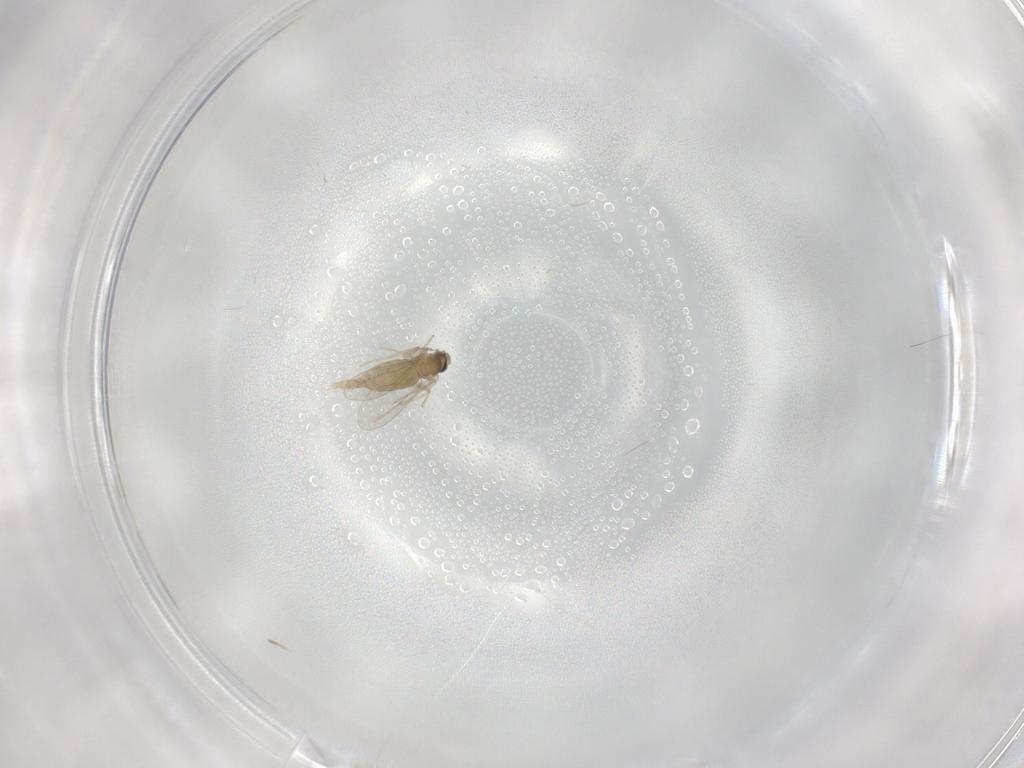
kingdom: Animalia
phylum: Arthropoda
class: Insecta
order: Diptera
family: Cecidomyiidae
